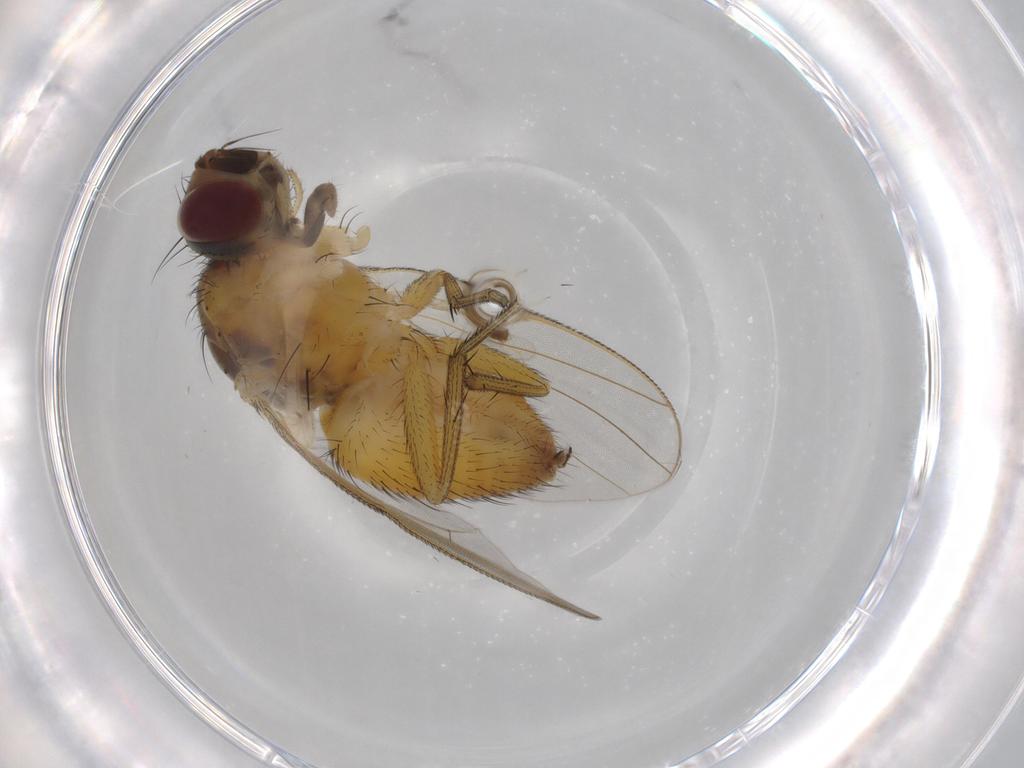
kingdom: Animalia
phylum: Arthropoda
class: Insecta
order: Diptera
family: Muscidae
